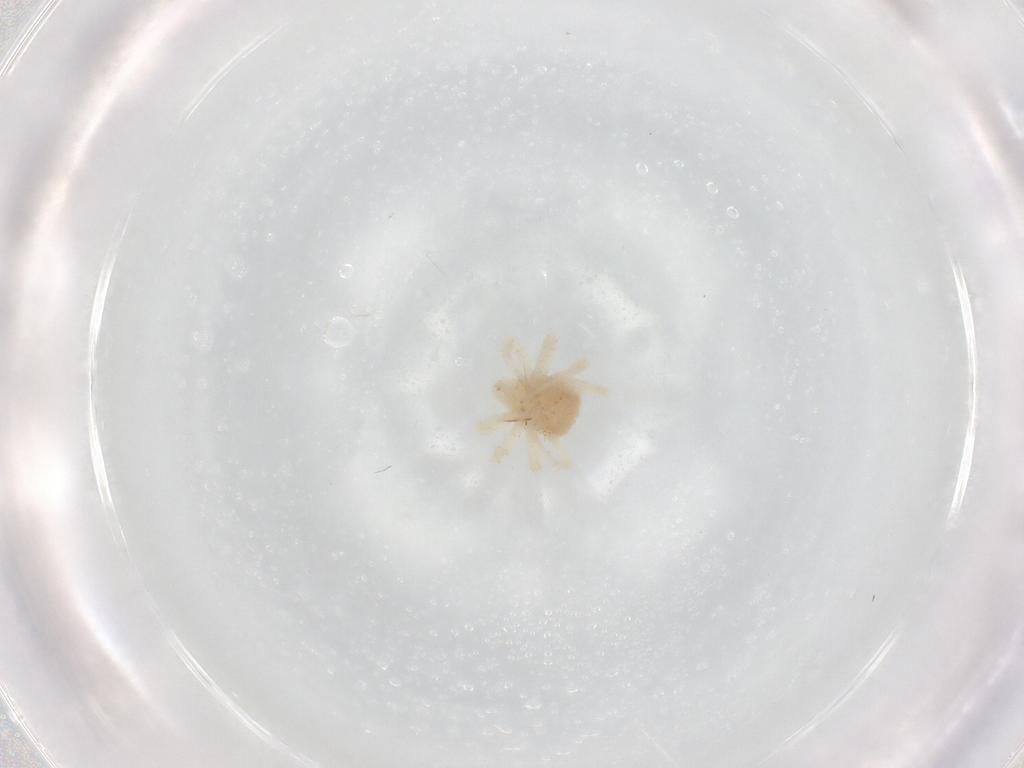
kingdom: Animalia
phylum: Arthropoda
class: Arachnida
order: Trombidiformes
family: Anystidae
